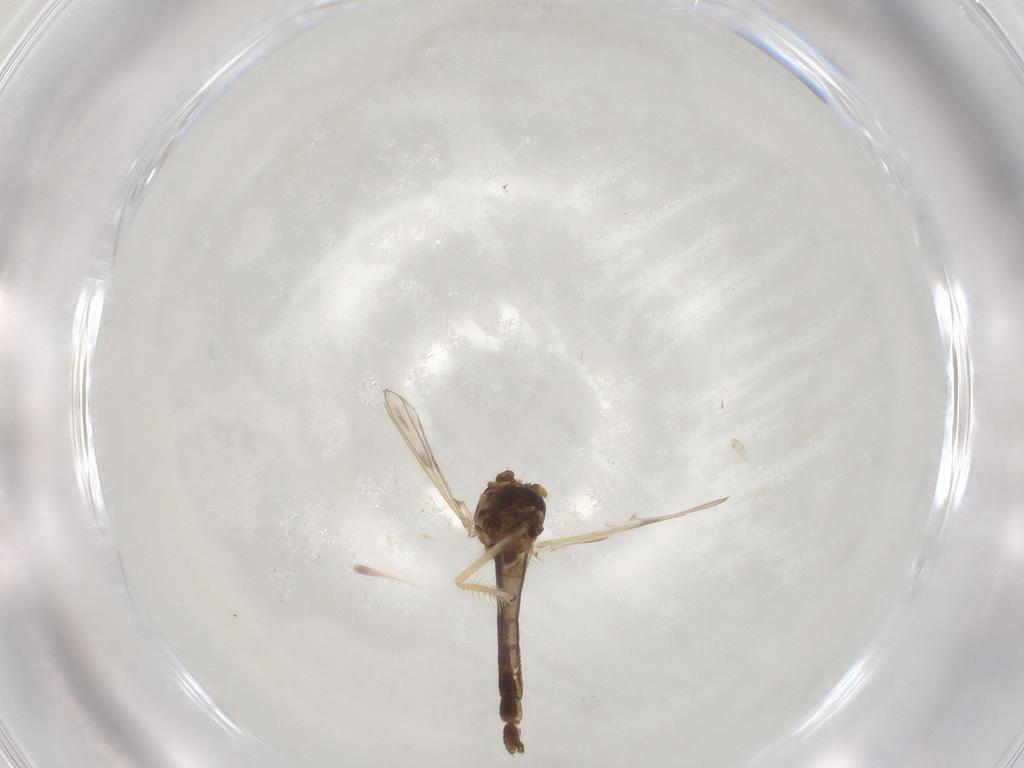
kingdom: Animalia
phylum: Arthropoda
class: Insecta
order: Diptera
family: Chironomidae
